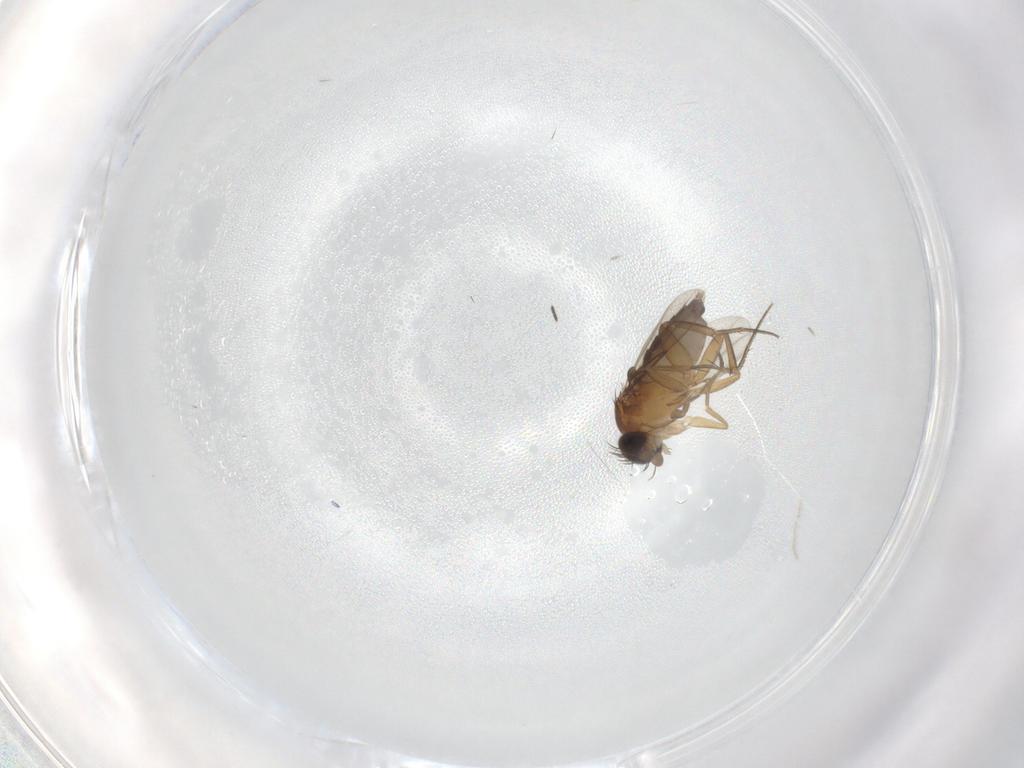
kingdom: Animalia
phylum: Arthropoda
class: Insecta
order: Diptera
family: Phoridae
